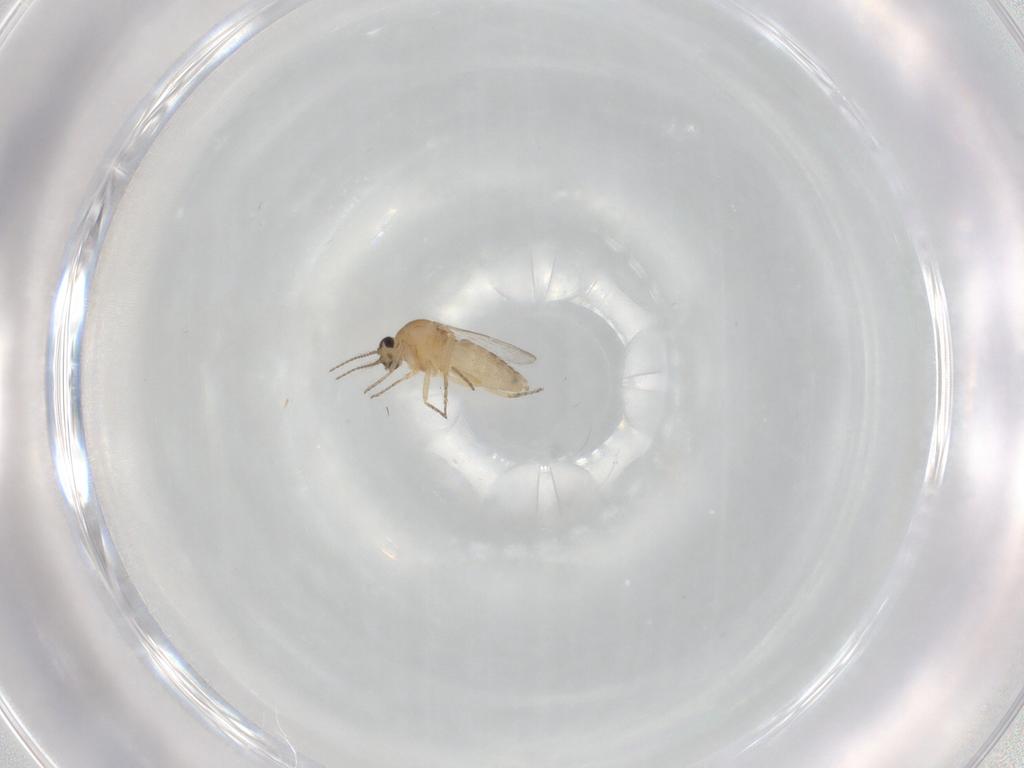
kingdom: Animalia
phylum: Arthropoda
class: Insecta
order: Diptera
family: Ceratopogonidae
